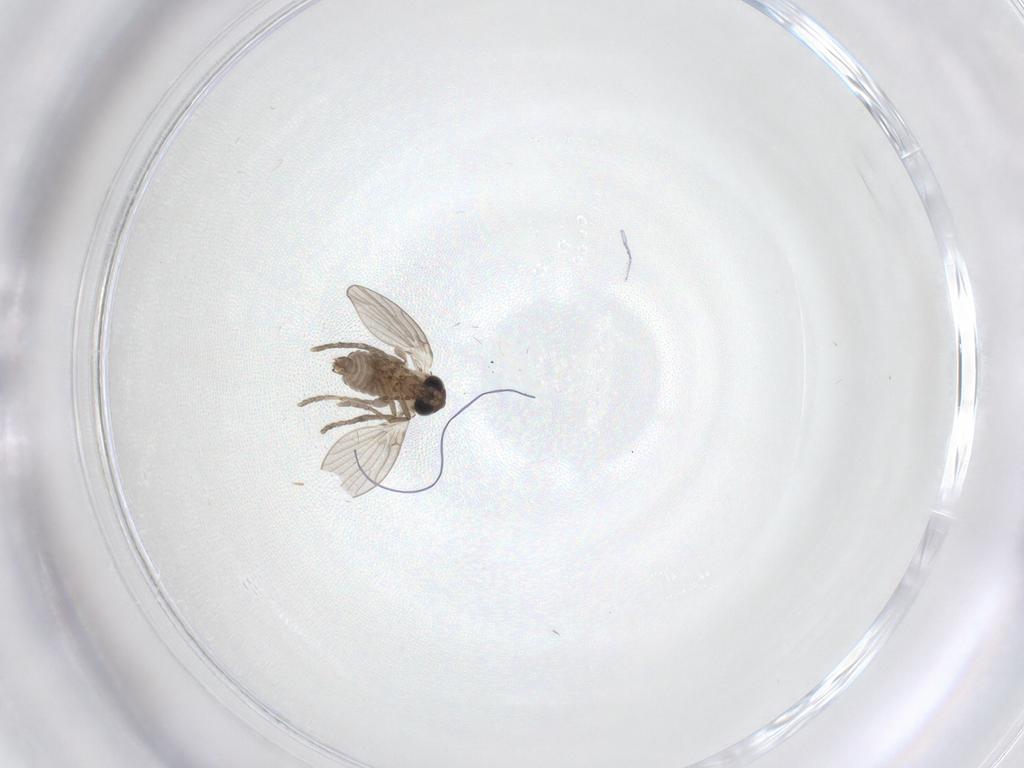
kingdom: Animalia
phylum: Arthropoda
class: Insecta
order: Diptera
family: Psychodidae
